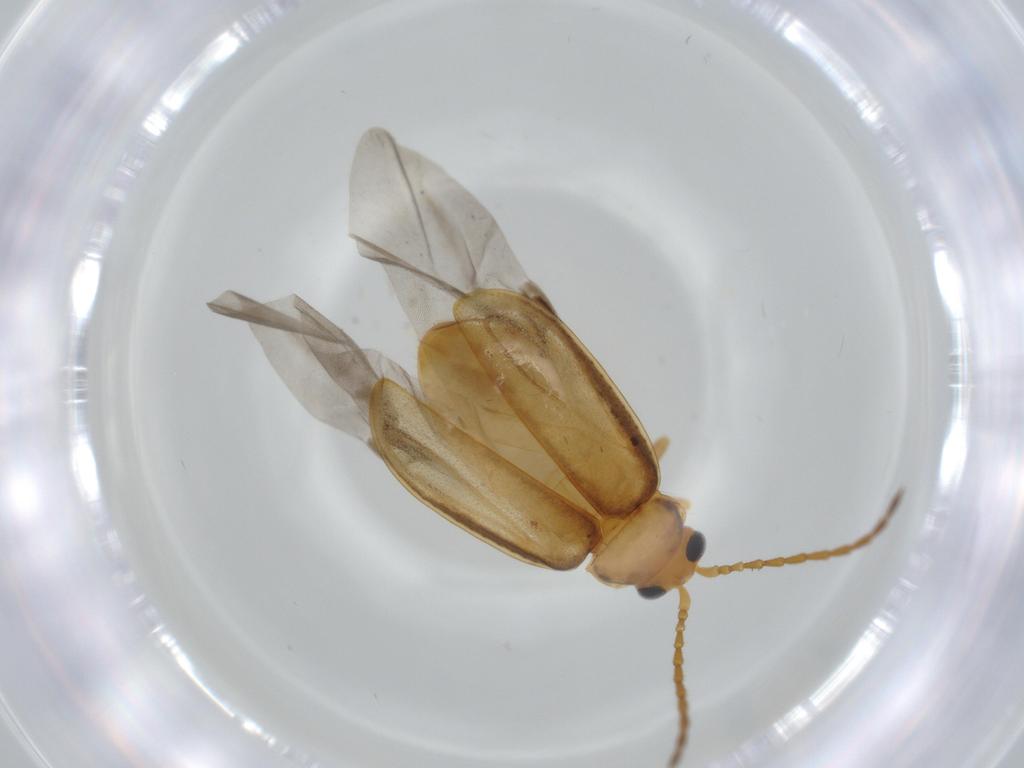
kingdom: Animalia
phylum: Arthropoda
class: Insecta
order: Coleoptera
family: Chrysomelidae
